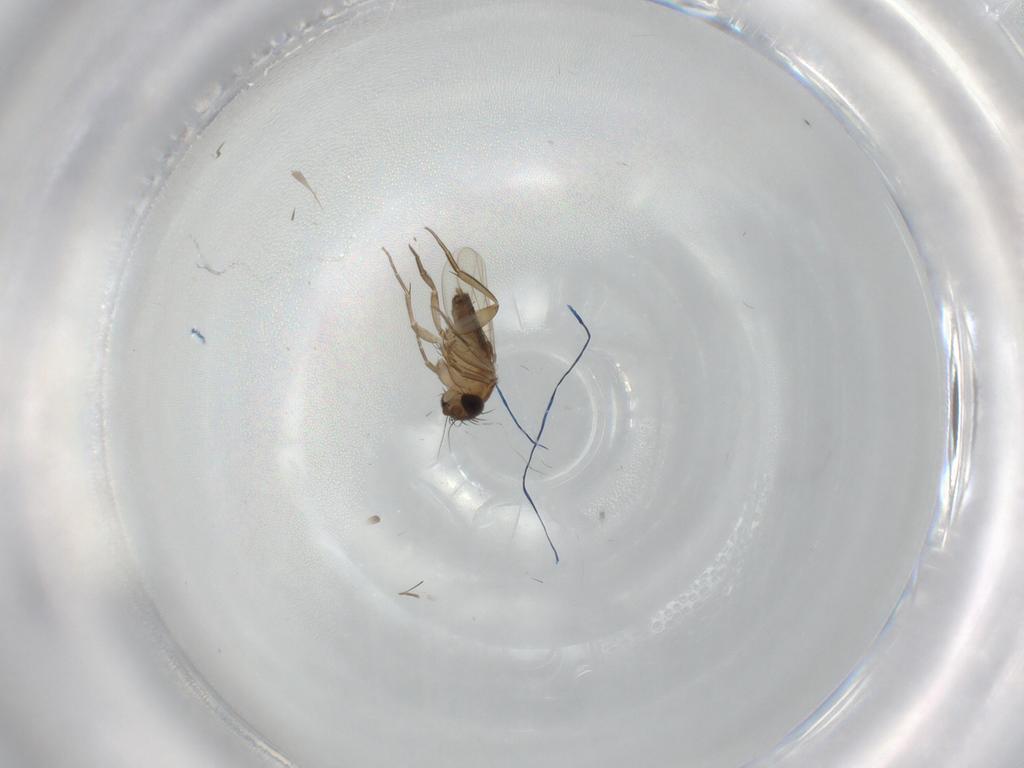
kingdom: Animalia
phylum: Arthropoda
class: Insecta
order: Diptera
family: Phoridae
